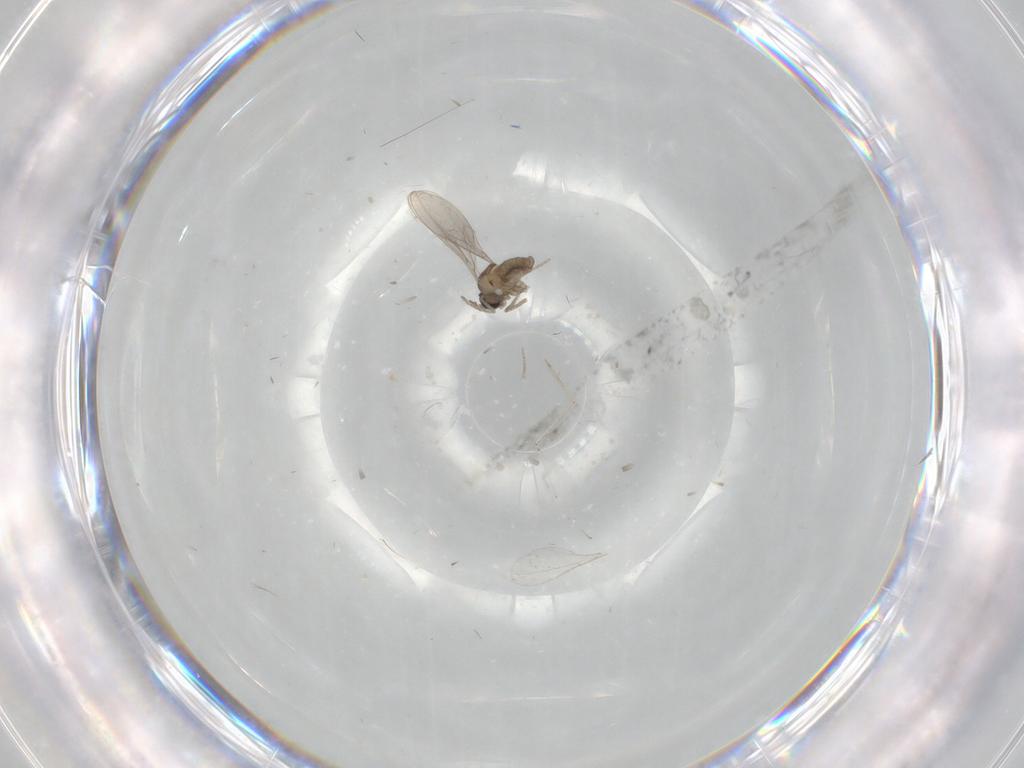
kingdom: Animalia
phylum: Arthropoda
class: Insecta
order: Diptera
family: Cecidomyiidae
